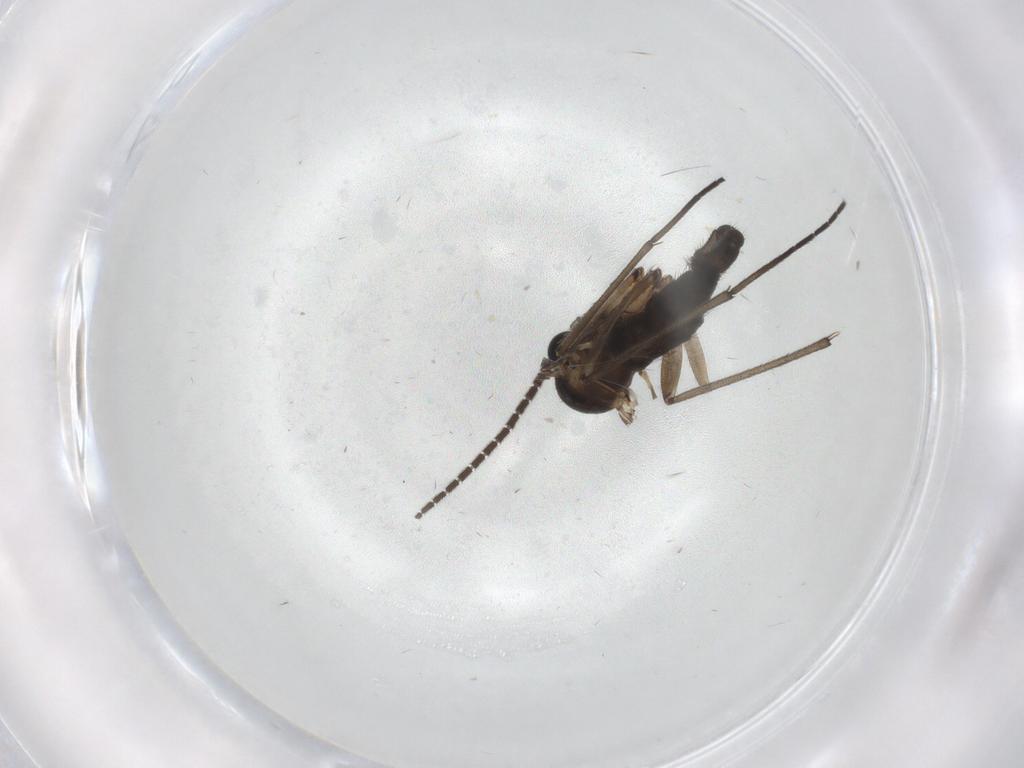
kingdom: Animalia
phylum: Arthropoda
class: Insecta
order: Diptera
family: Sciaridae
